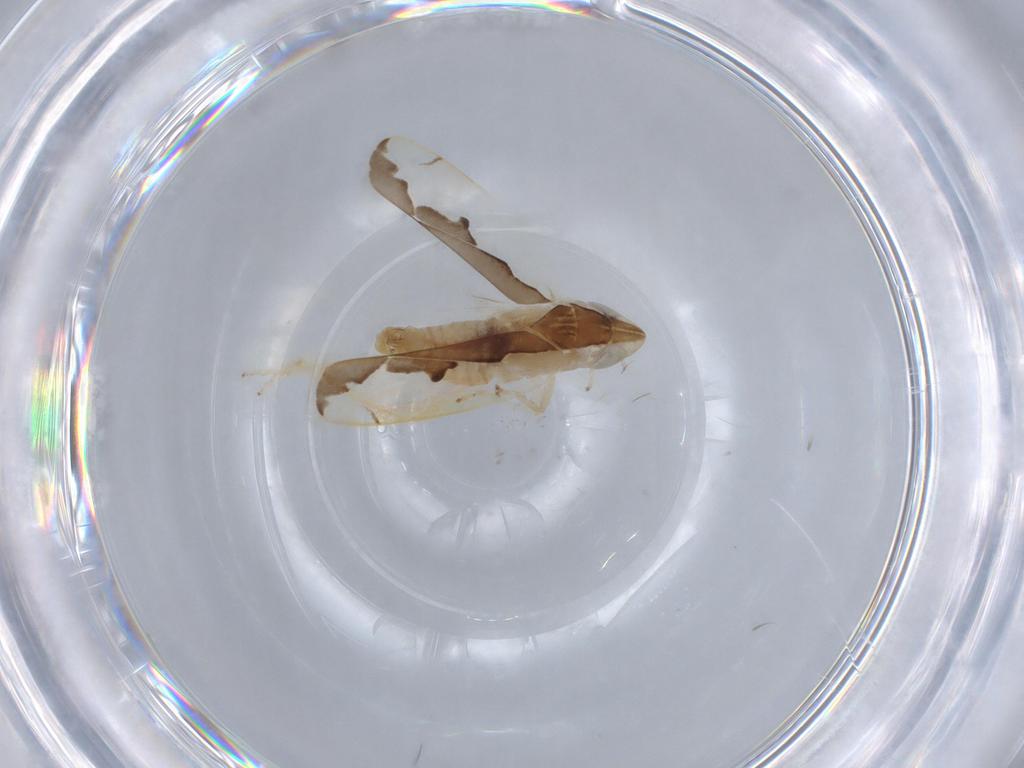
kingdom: Animalia
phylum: Arthropoda
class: Insecta
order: Hemiptera
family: Cicadellidae
